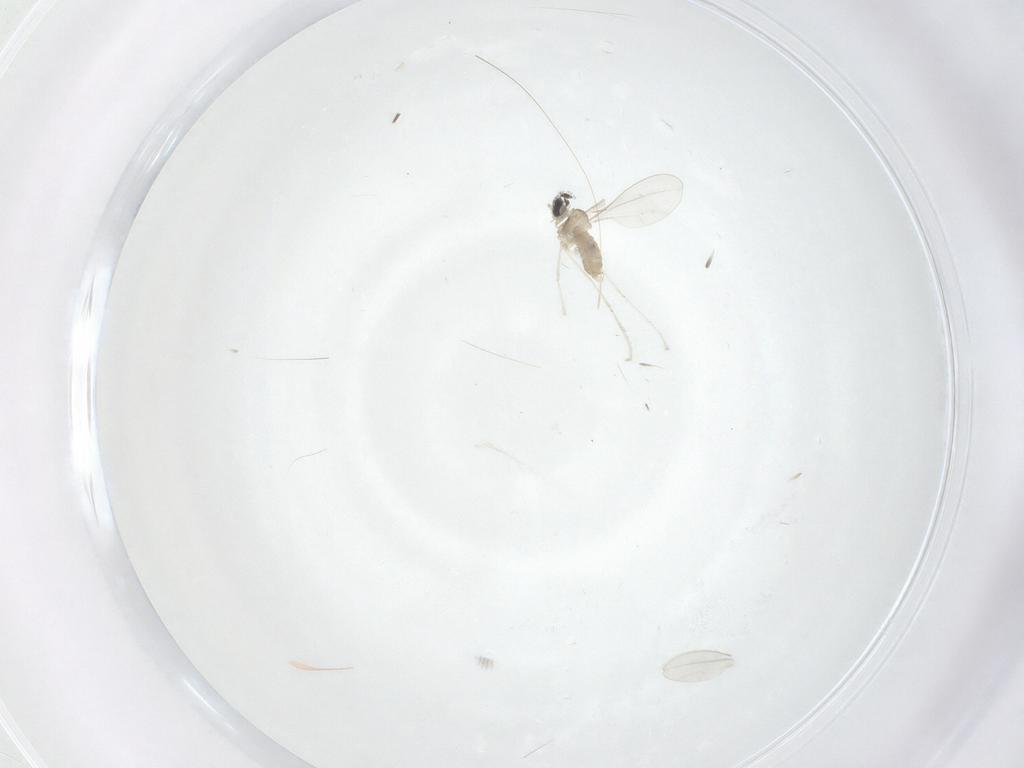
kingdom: Animalia
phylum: Arthropoda
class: Insecta
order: Diptera
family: Cecidomyiidae
